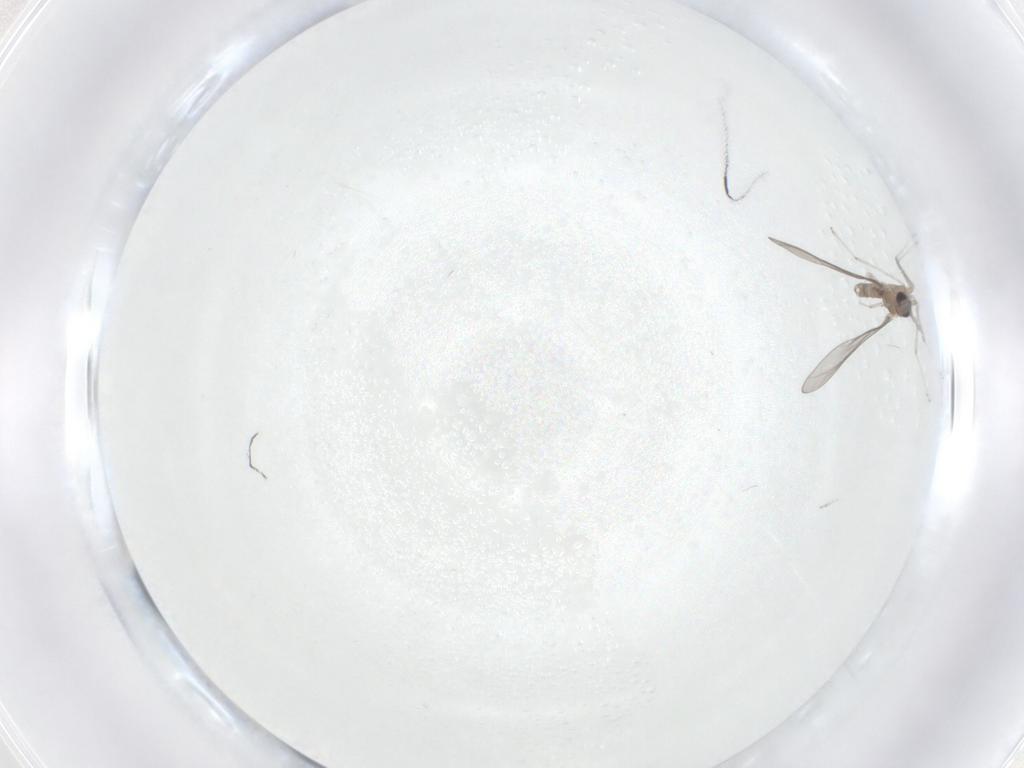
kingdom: Animalia
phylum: Arthropoda
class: Insecta
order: Diptera
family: Cecidomyiidae
